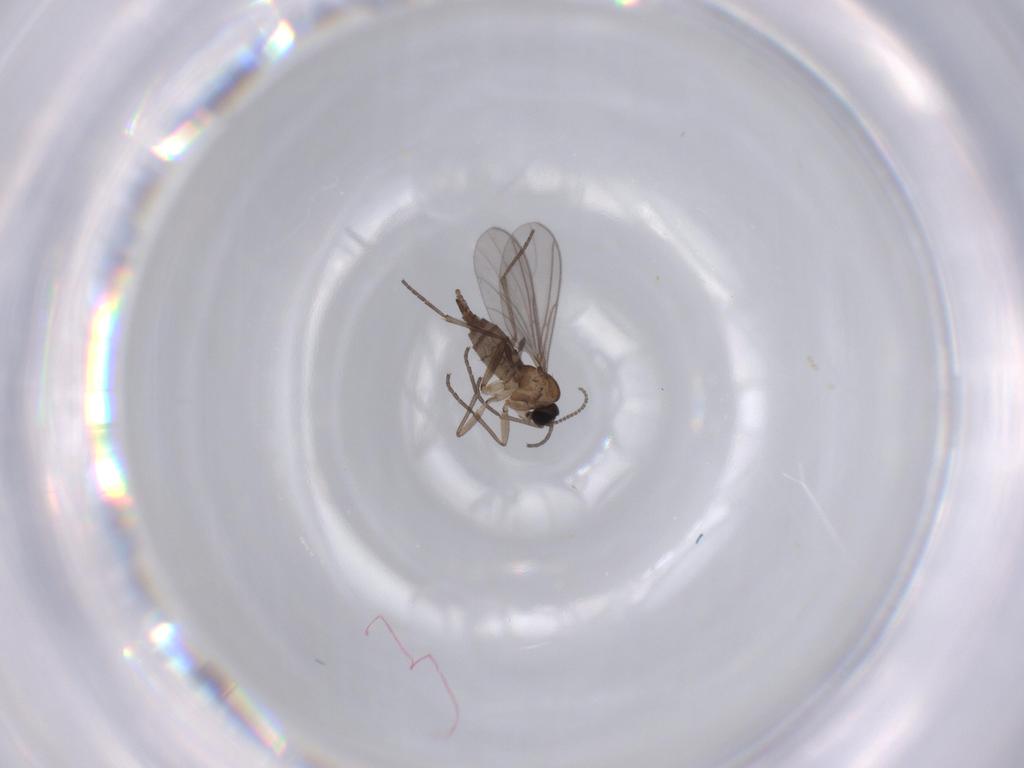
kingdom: Animalia
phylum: Arthropoda
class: Insecta
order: Diptera
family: Sciaridae
